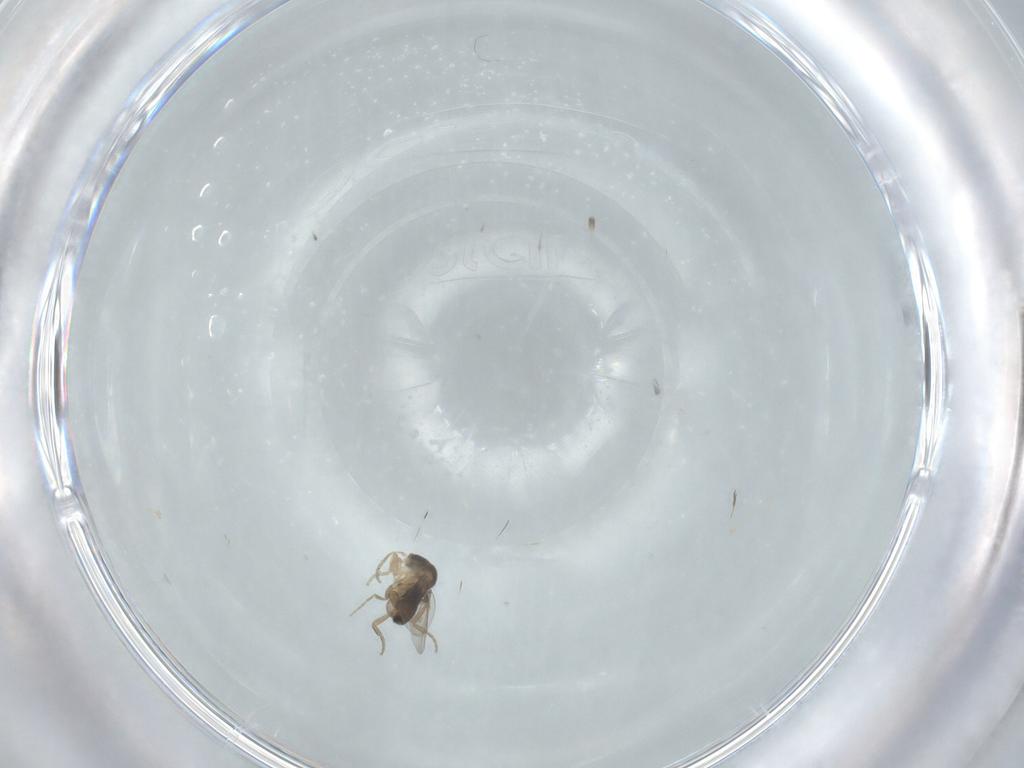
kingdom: Animalia
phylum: Arthropoda
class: Insecta
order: Diptera
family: Phoridae
